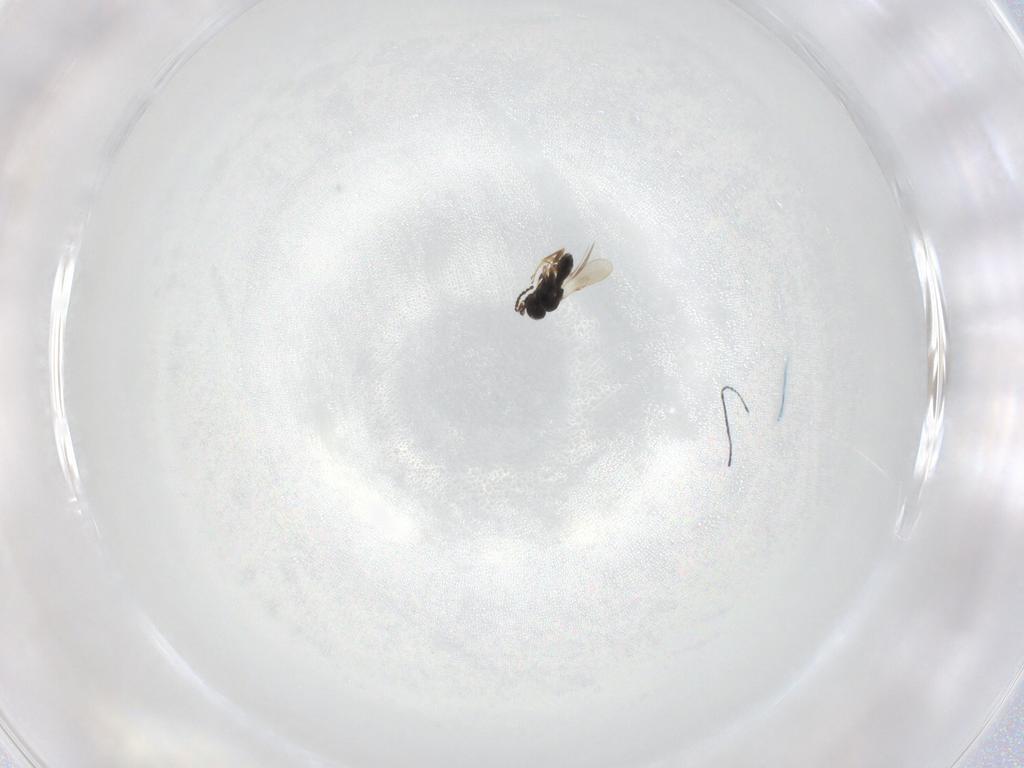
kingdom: Animalia
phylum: Arthropoda
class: Insecta
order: Hymenoptera
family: Scelionidae
